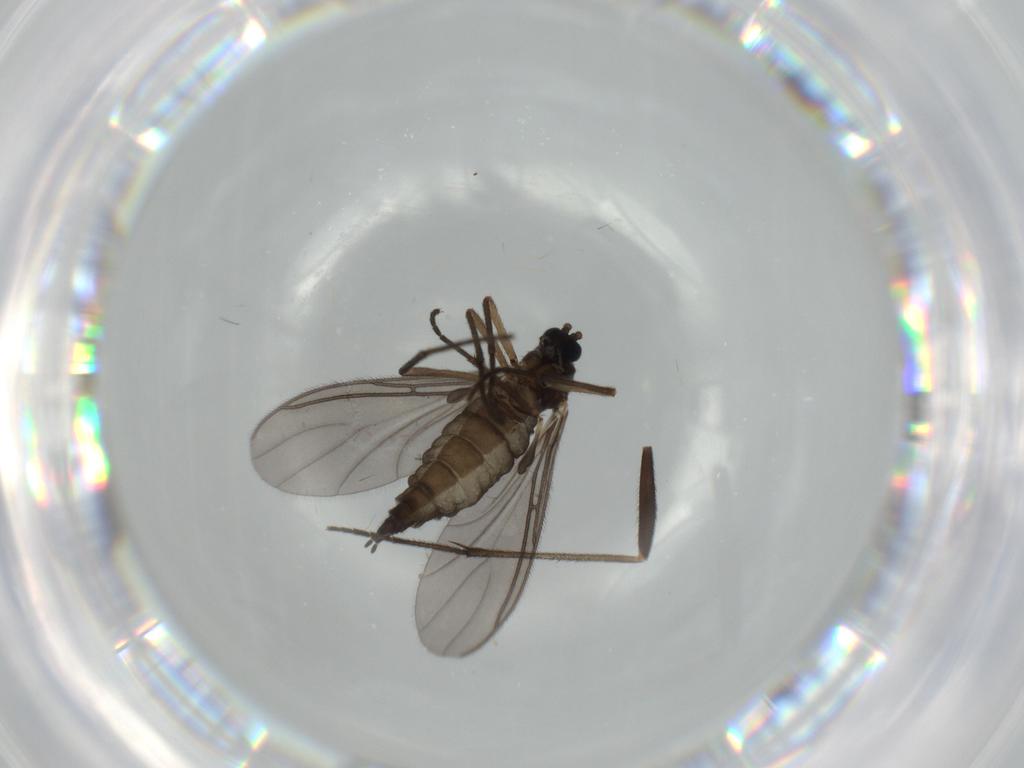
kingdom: Animalia
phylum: Arthropoda
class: Insecta
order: Diptera
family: Sciaridae
